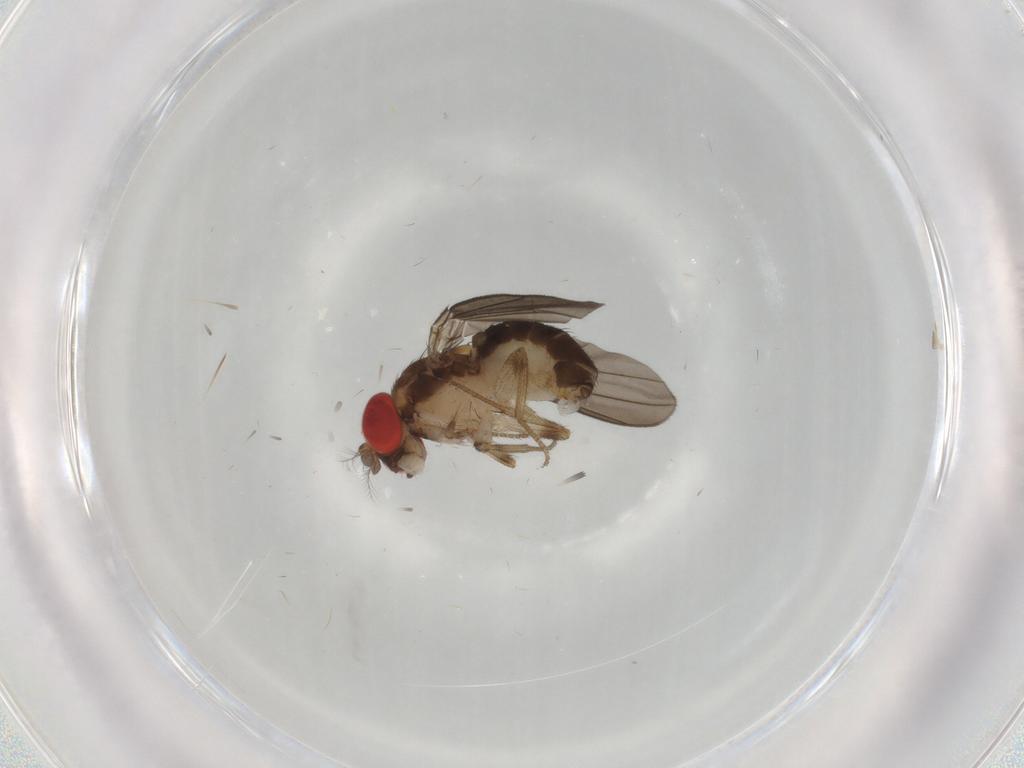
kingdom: Animalia
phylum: Arthropoda
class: Insecta
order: Diptera
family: Drosophilidae
